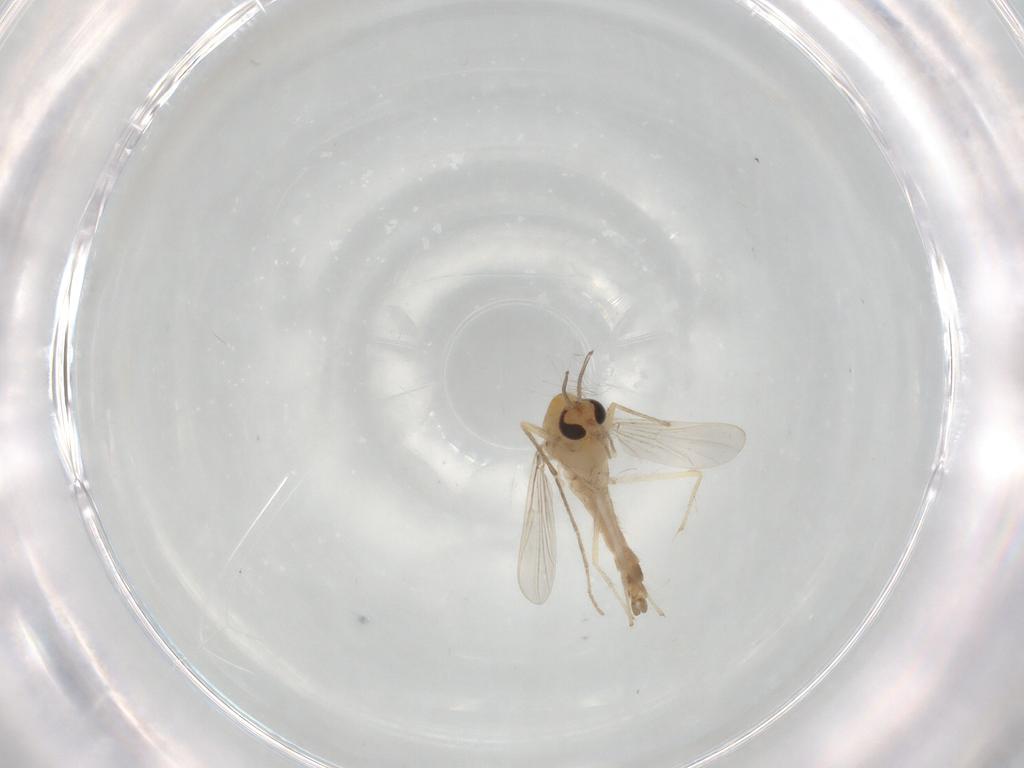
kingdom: Animalia
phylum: Arthropoda
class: Insecta
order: Diptera
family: Chironomidae
